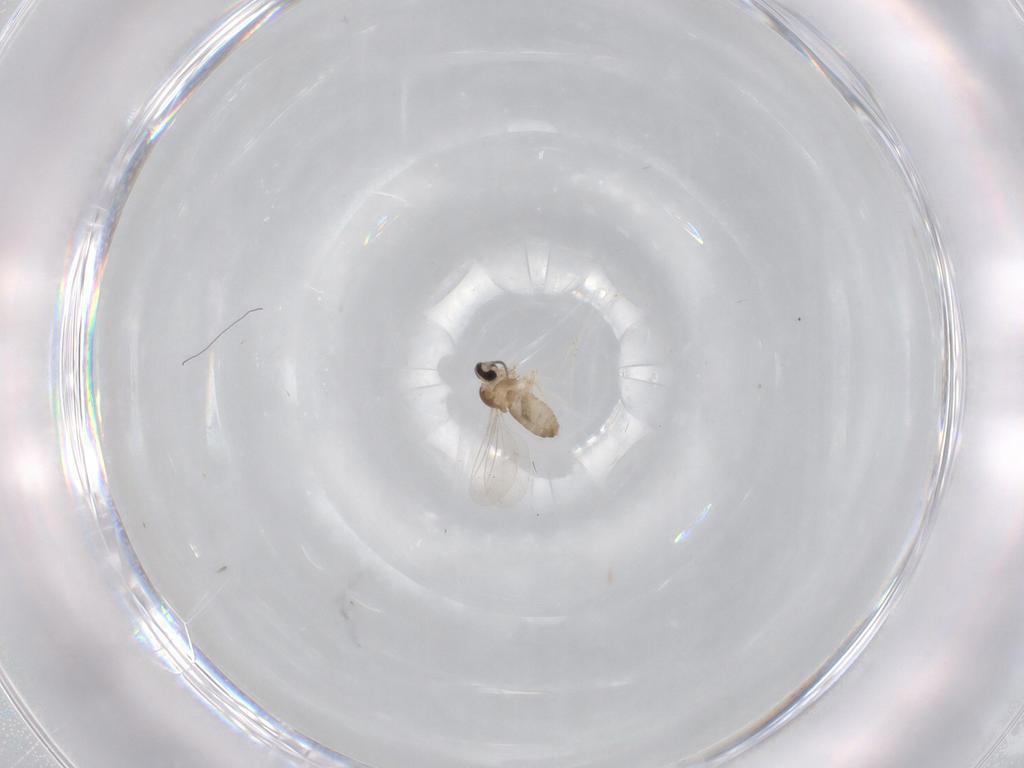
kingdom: Animalia
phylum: Arthropoda
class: Insecta
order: Diptera
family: Cecidomyiidae
